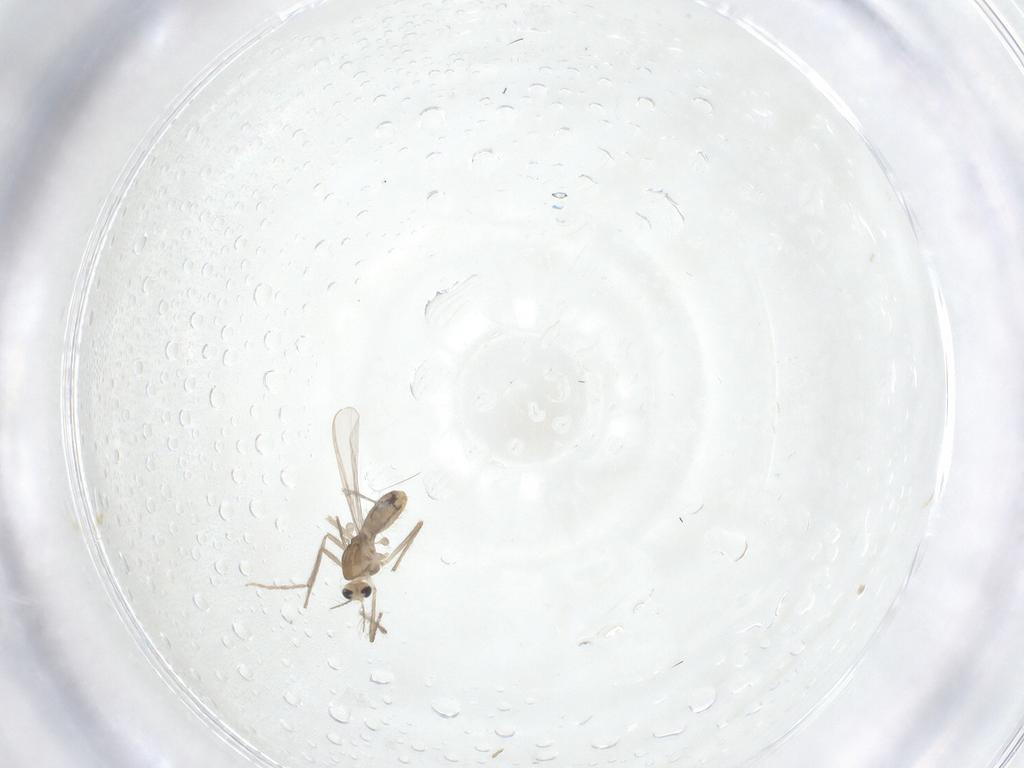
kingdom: Animalia
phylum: Arthropoda
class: Insecta
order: Diptera
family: Chironomidae
